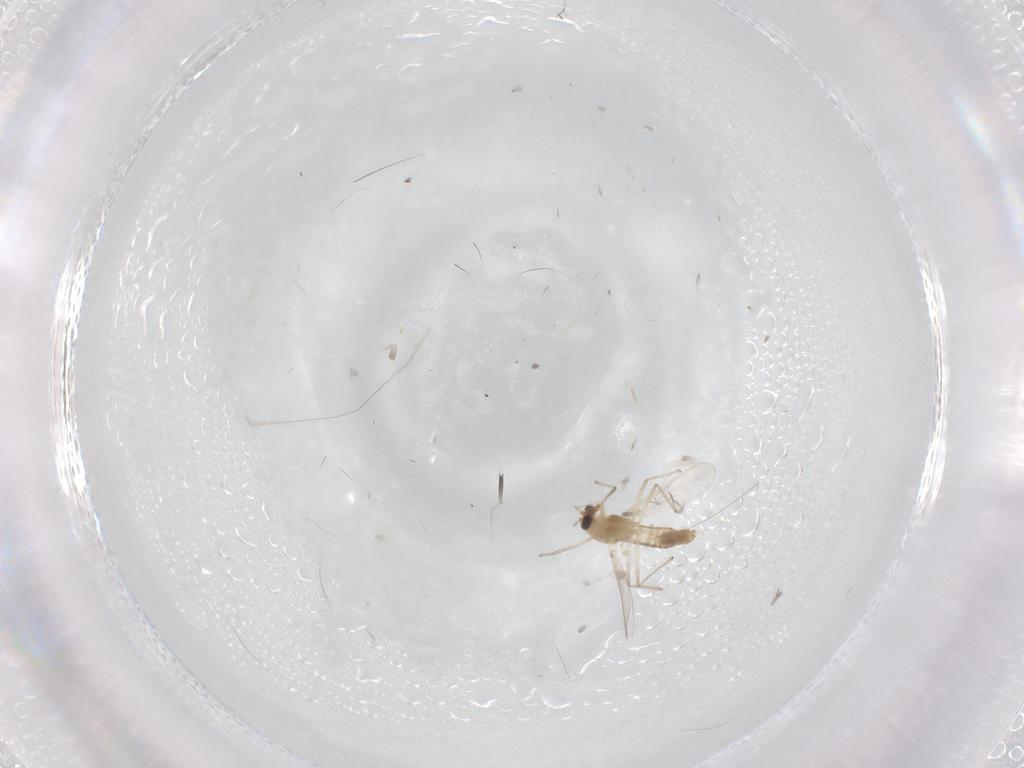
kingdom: Animalia
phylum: Arthropoda
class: Insecta
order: Diptera
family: Chironomidae
